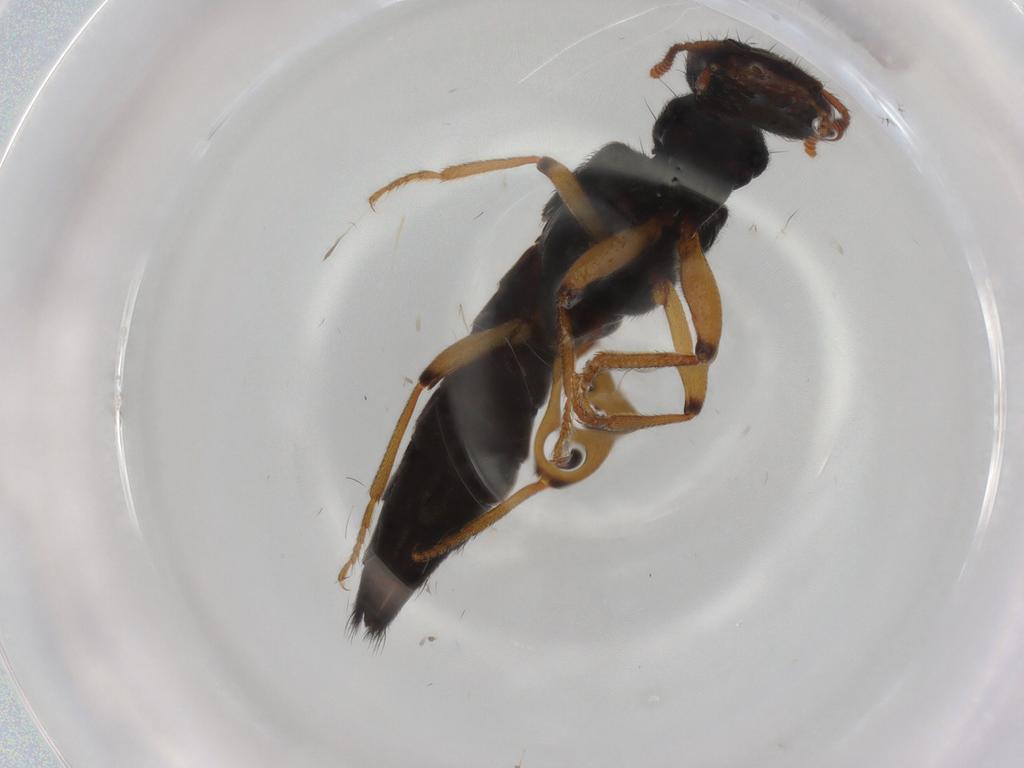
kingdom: Animalia
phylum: Arthropoda
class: Insecta
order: Coleoptera
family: Staphylinidae
